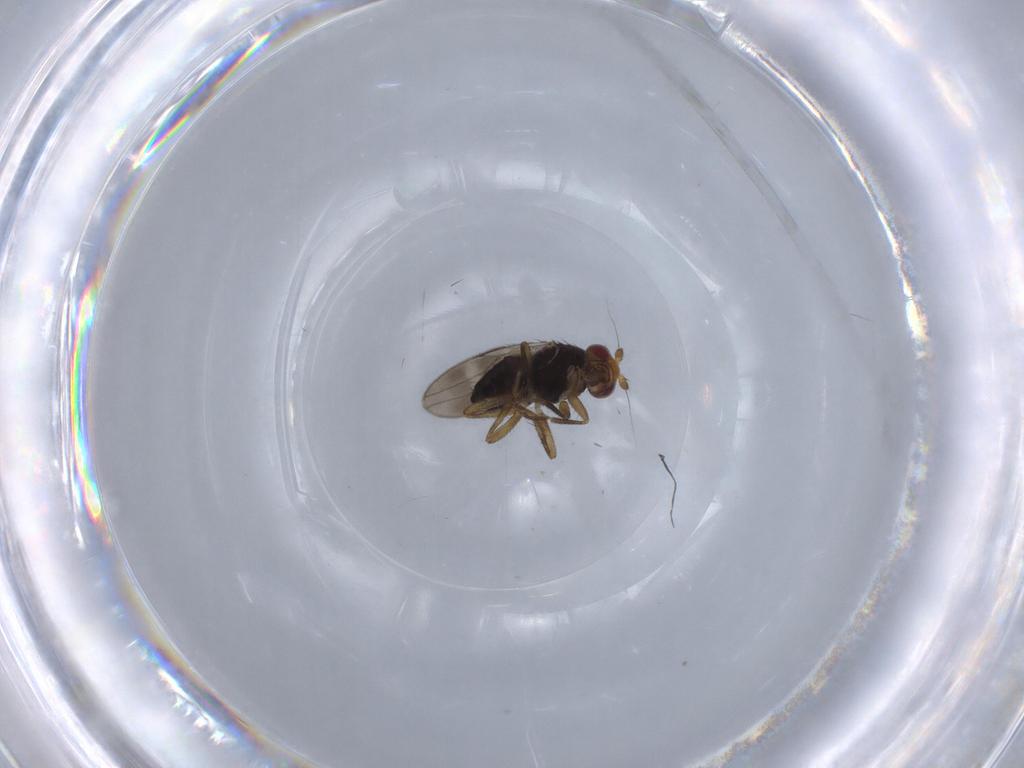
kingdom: Animalia
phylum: Arthropoda
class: Insecta
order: Diptera
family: Sphaeroceridae
